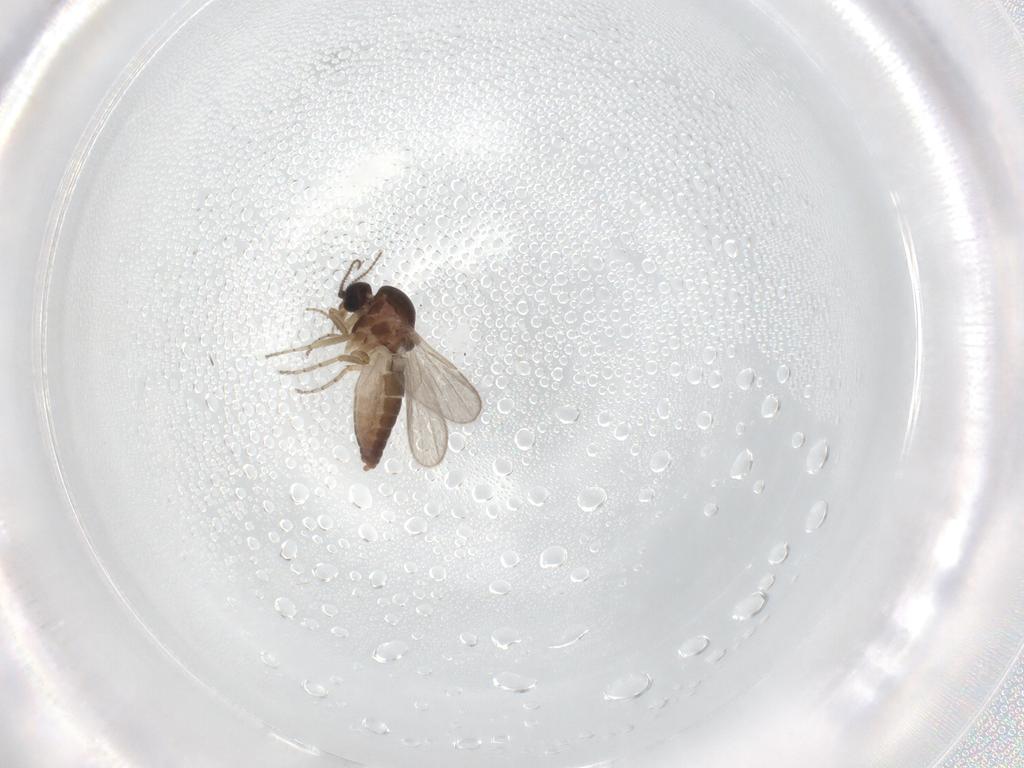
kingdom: Animalia
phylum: Arthropoda
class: Insecta
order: Diptera
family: Ceratopogonidae
